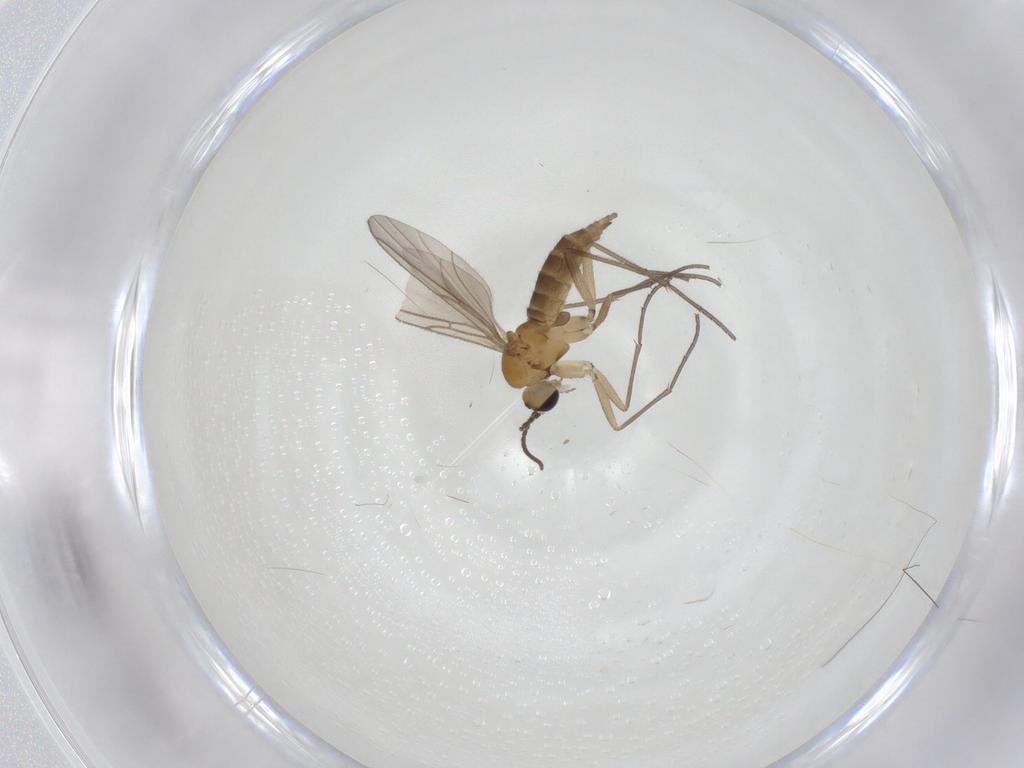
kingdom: Animalia
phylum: Arthropoda
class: Insecta
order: Diptera
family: Sciaridae
